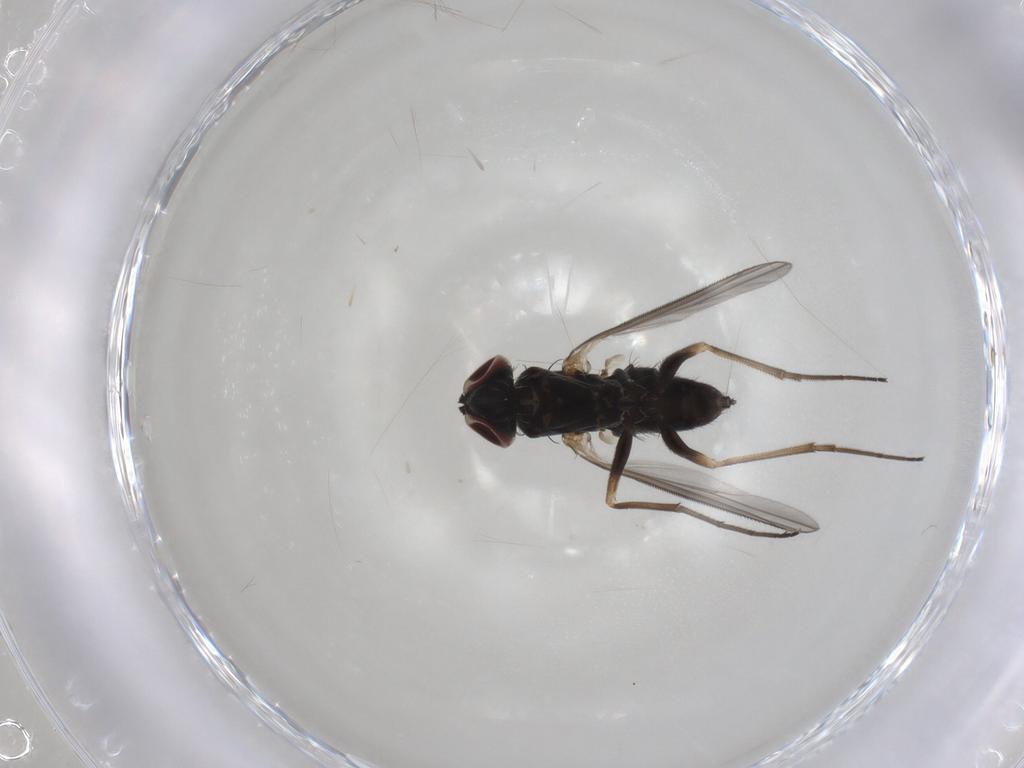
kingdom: Animalia
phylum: Arthropoda
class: Insecta
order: Diptera
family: Dolichopodidae
